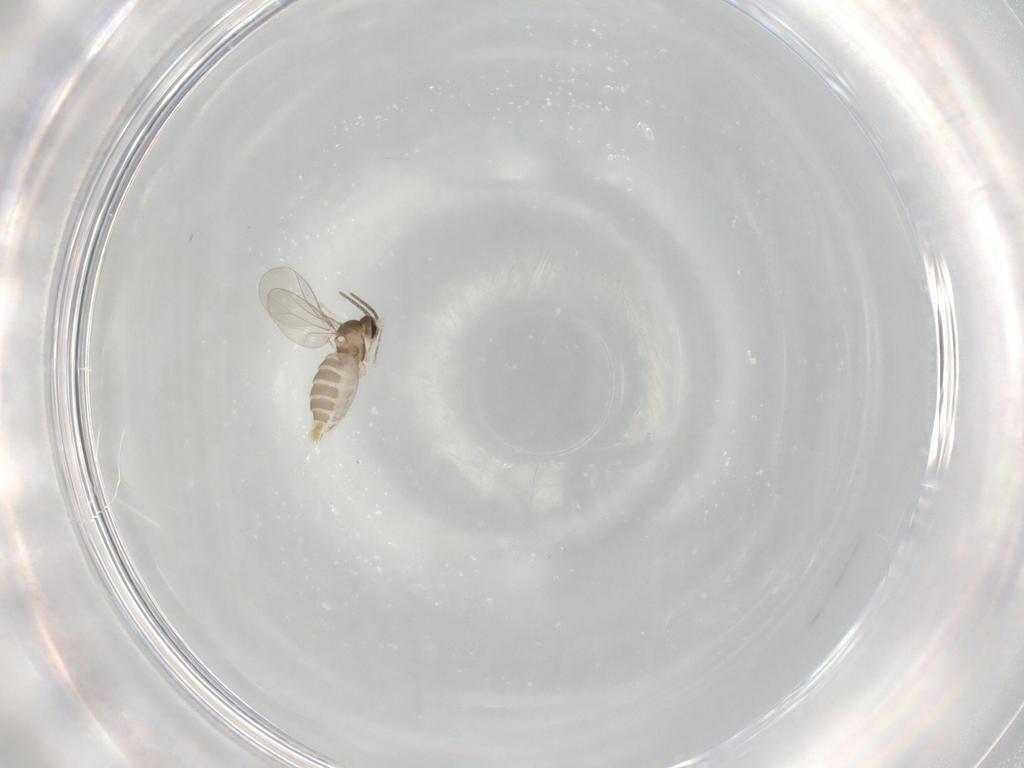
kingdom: Animalia
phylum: Arthropoda
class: Insecta
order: Diptera
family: Cecidomyiidae
